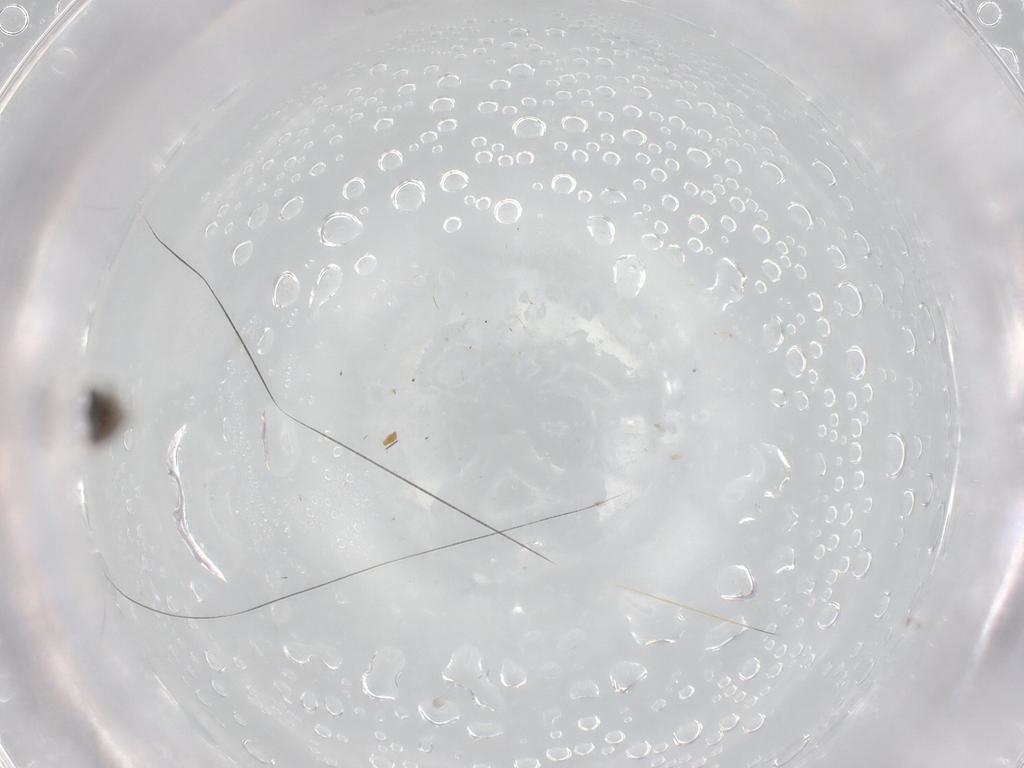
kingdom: Animalia
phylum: Arthropoda
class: Insecta
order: Diptera
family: Psychodidae
